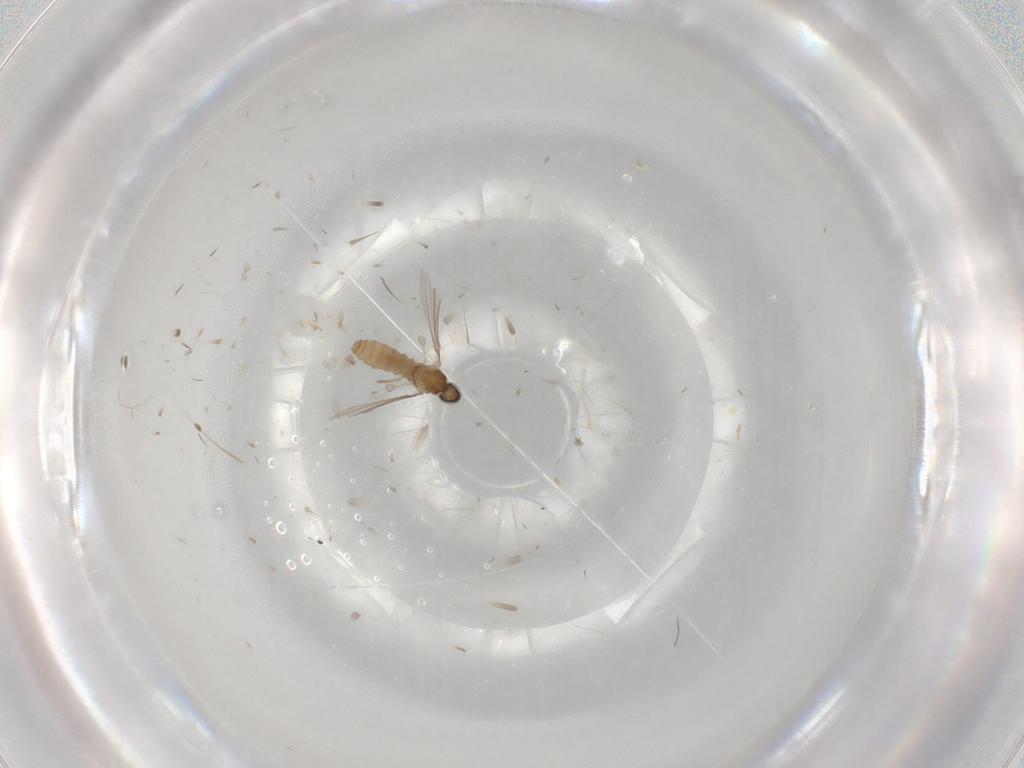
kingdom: Animalia
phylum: Arthropoda
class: Insecta
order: Diptera
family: Cecidomyiidae
